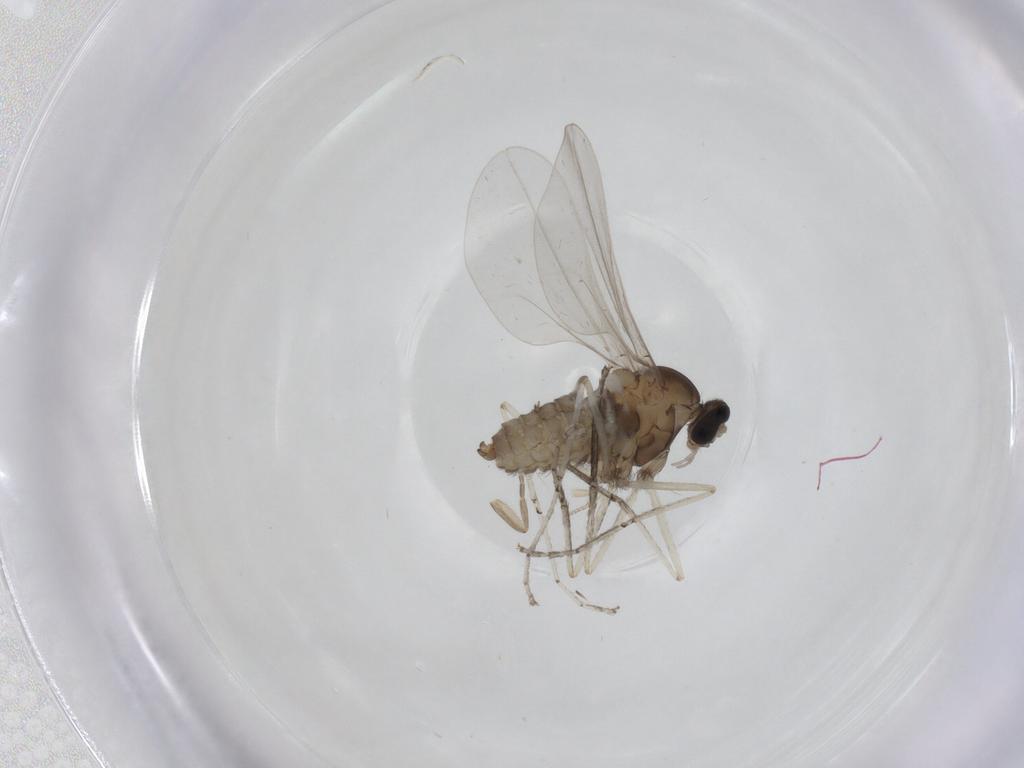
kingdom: Animalia
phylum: Arthropoda
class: Insecta
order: Diptera
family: Cecidomyiidae
